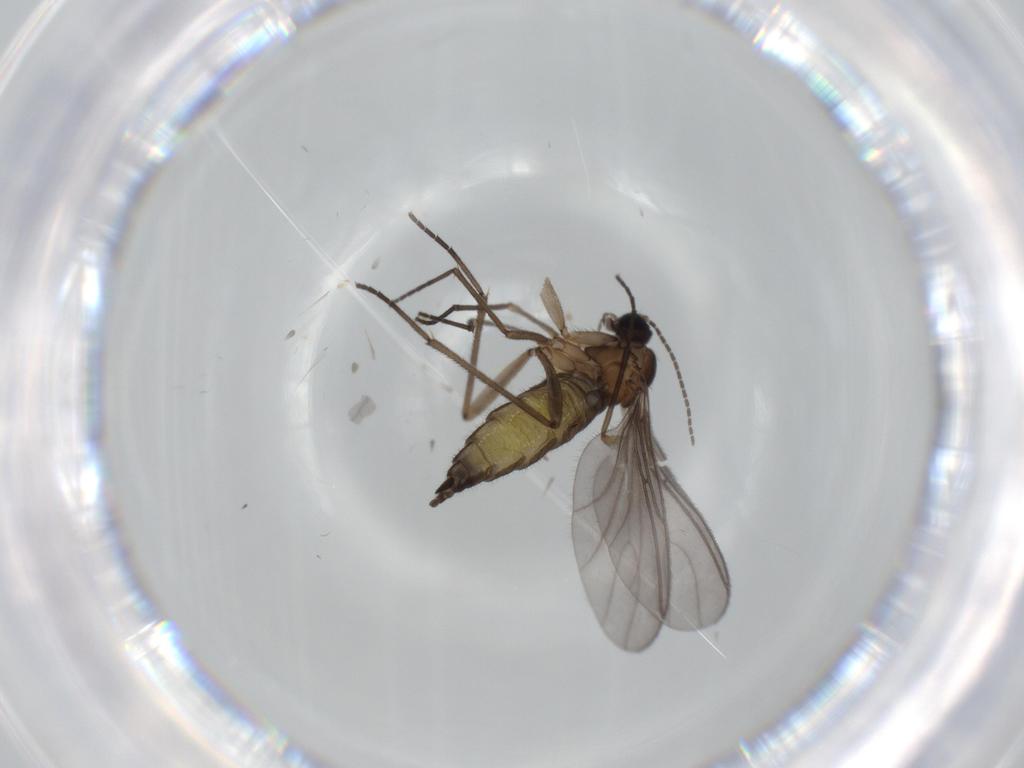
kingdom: Animalia
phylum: Arthropoda
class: Insecta
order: Diptera
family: Sciaridae
